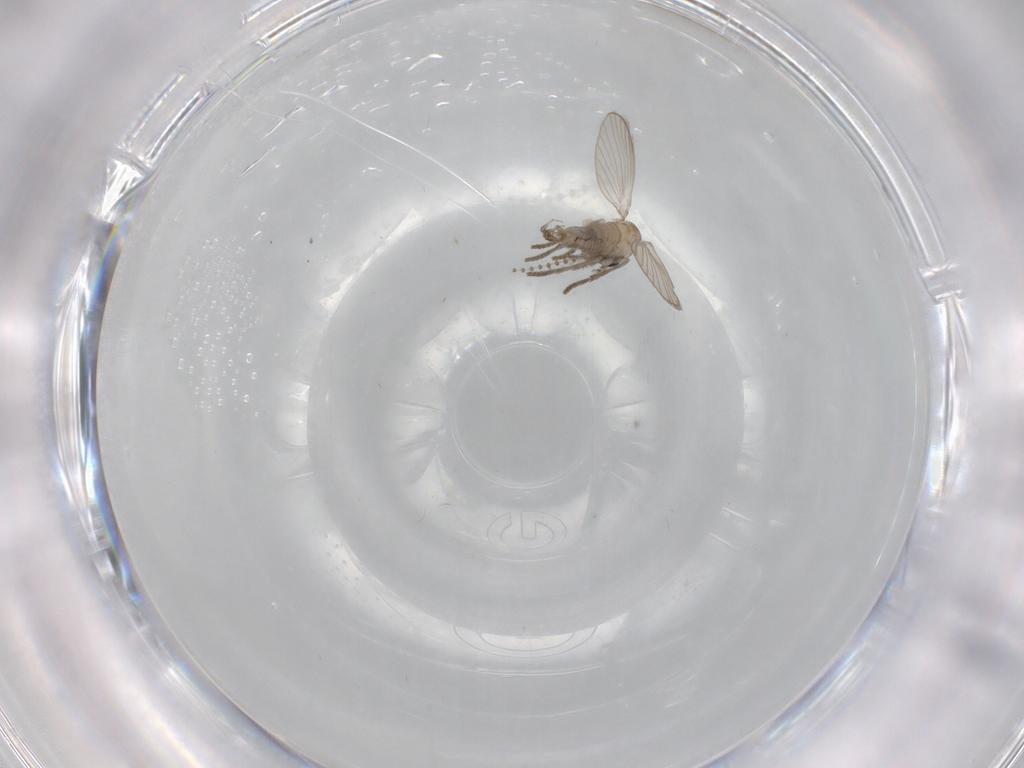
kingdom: Animalia
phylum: Arthropoda
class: Insecta
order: Diptera
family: Psychodidae
